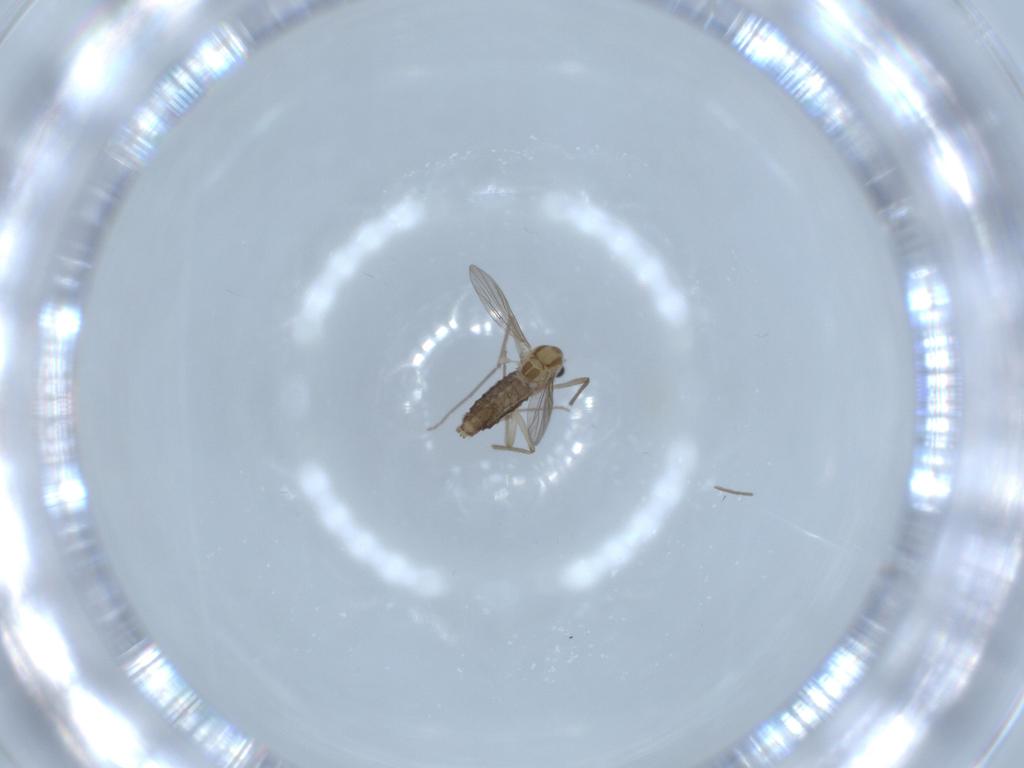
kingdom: Animalia
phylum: Arthropoda
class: Insecta
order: Diptera
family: Chironomidae
